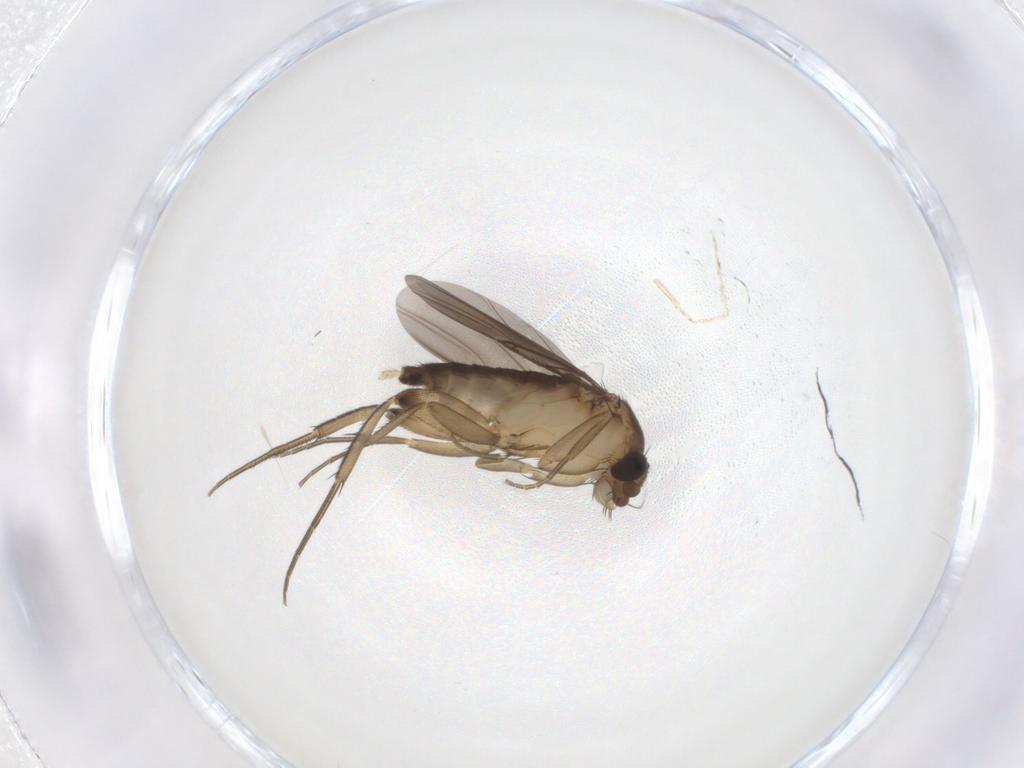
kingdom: Animalia
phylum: Arthropoda
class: Insecta
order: Diptera
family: Phoridae
